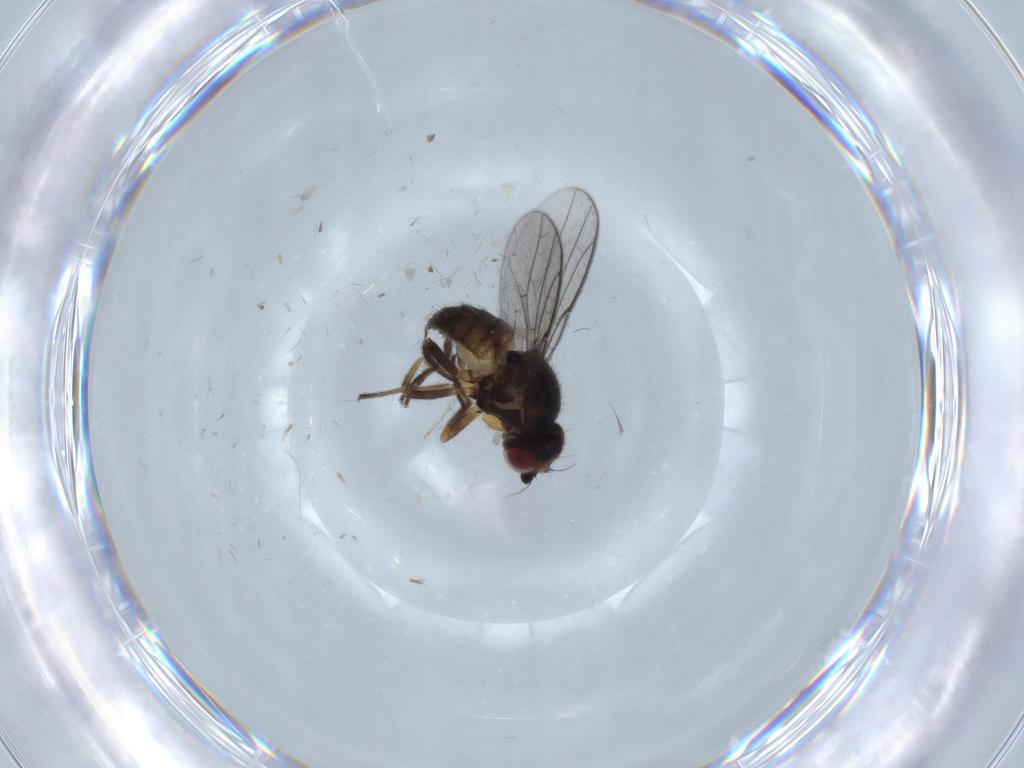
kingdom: Animalia
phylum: Arthropoda
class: Insecta
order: Diptera
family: Chloropidae
